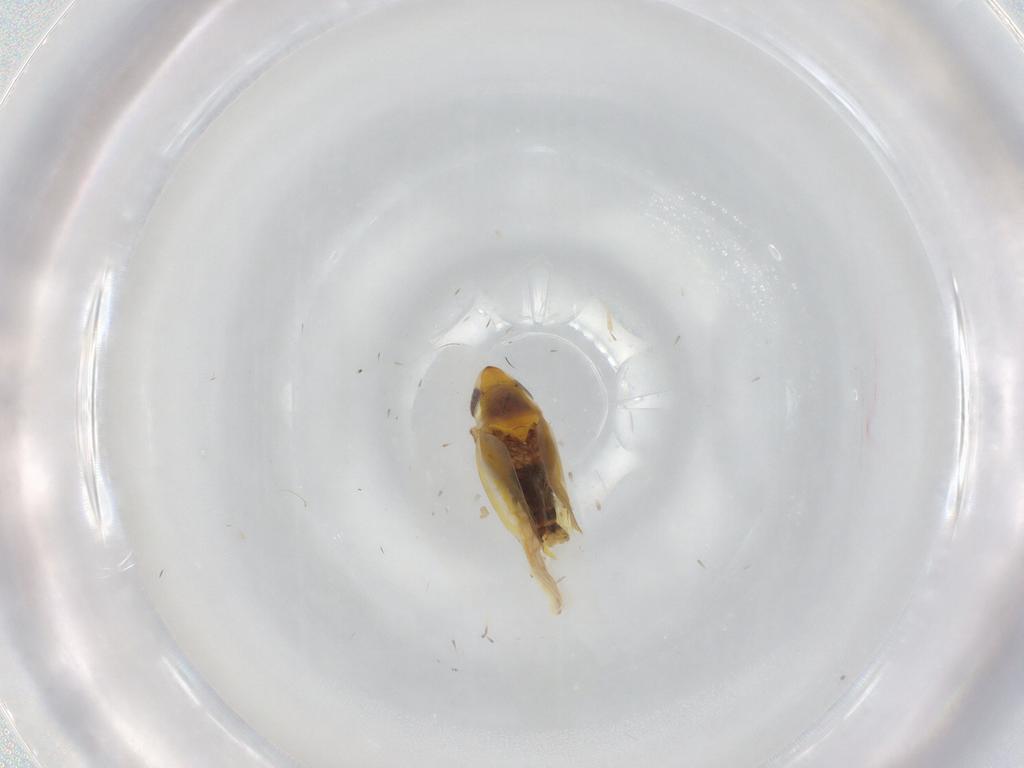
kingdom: Animalia
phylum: Arthropoda
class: Insecta
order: Hemiptera
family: Cicadellidae
